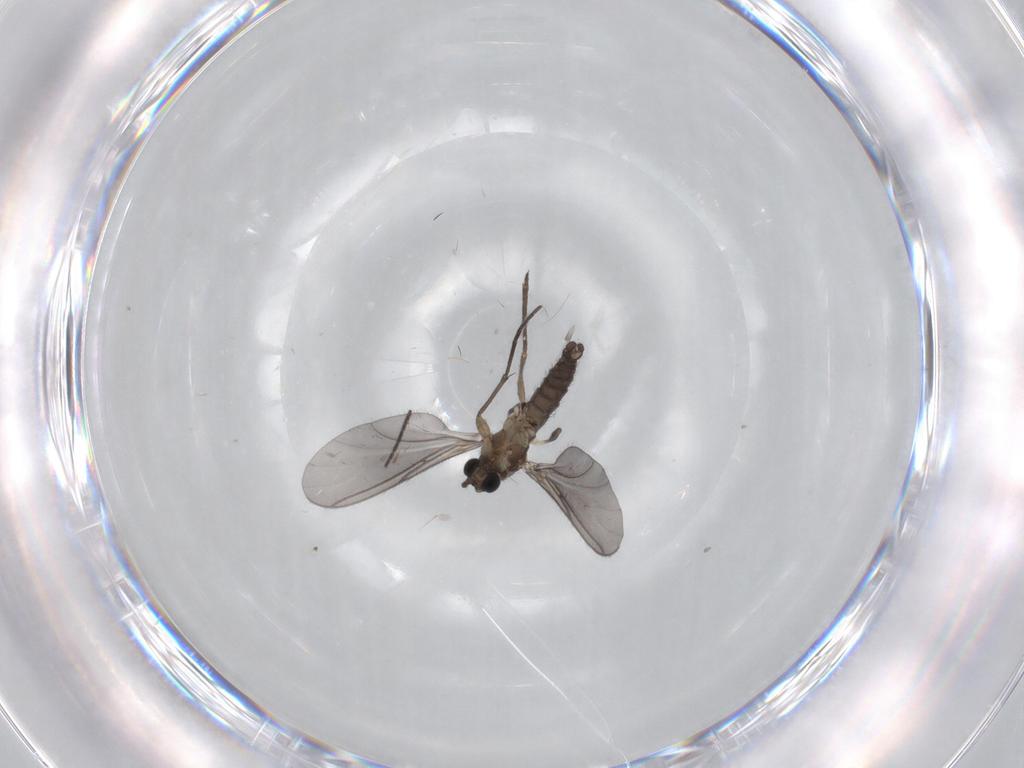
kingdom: Animalia
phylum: Arthropoda
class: Insecta
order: Diptera
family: Sciaridae
